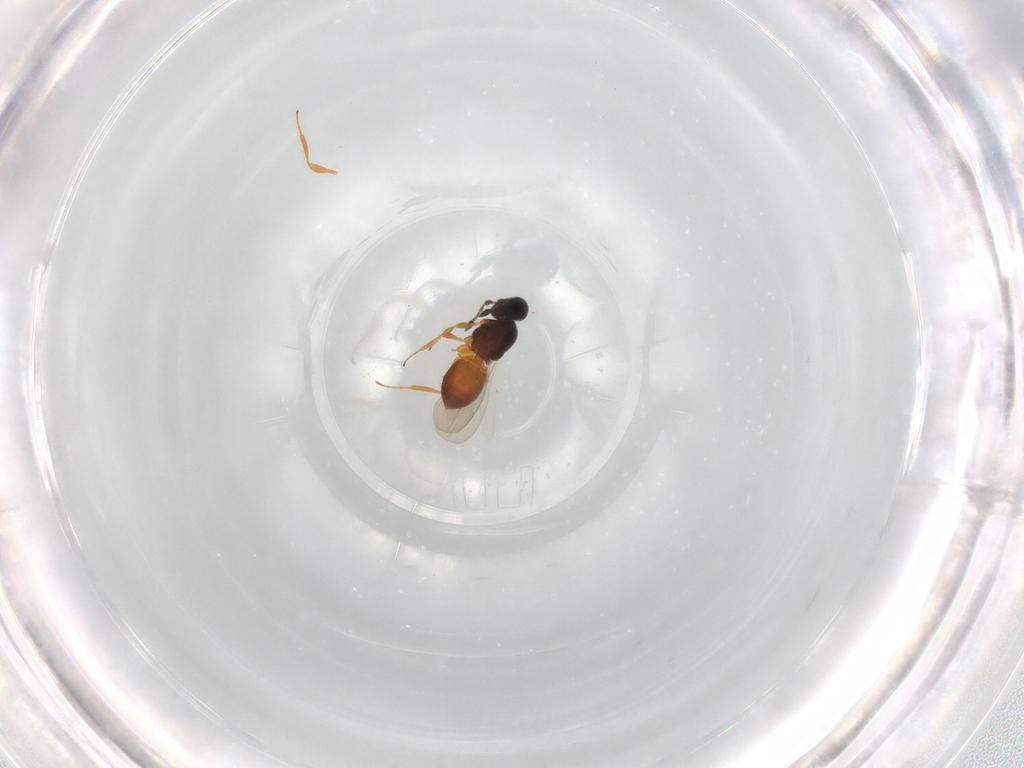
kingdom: Animalia
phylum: Arthropoda
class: Insecta
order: Hymenoptera
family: Platygastridae
